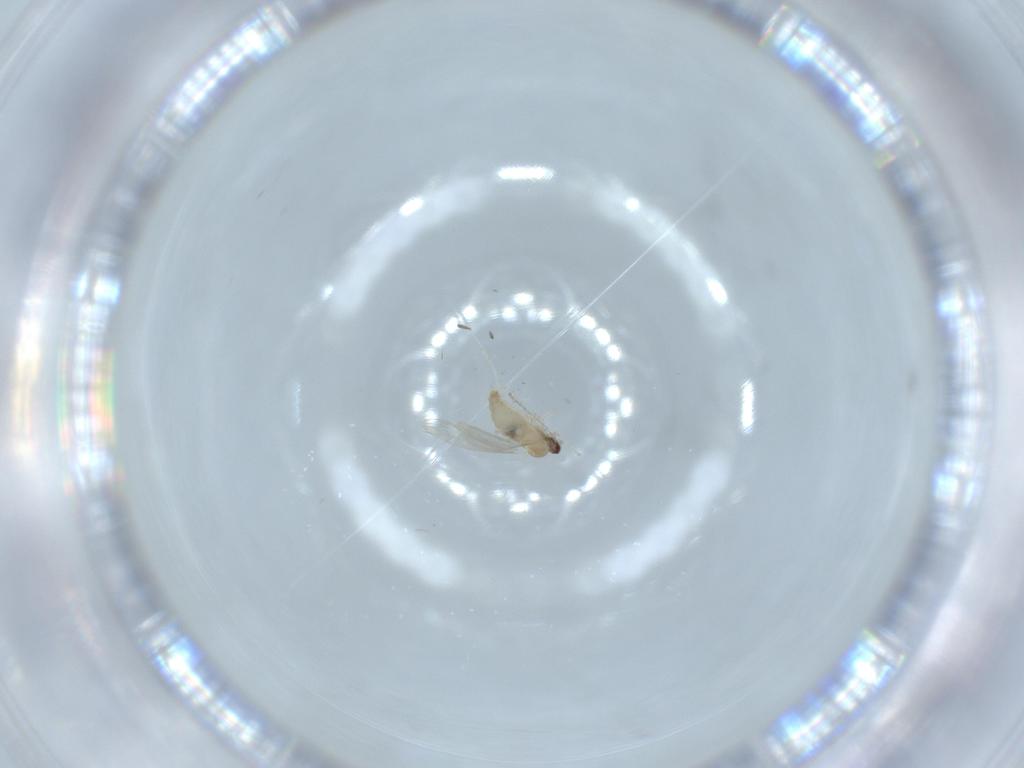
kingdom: Animalia
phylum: Arthropoda
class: Insecta
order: Diptera
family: Cecidomyiidae
